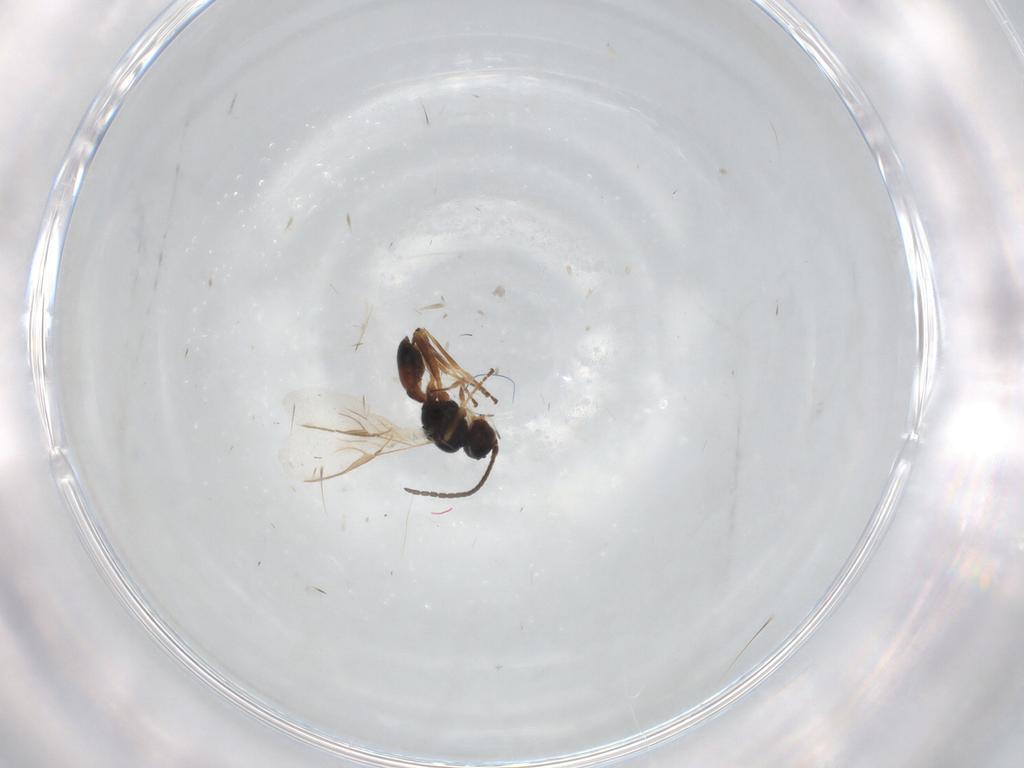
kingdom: Animalia
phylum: Arthropoda
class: Insecta
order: Hymenoptera
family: Braconidae
